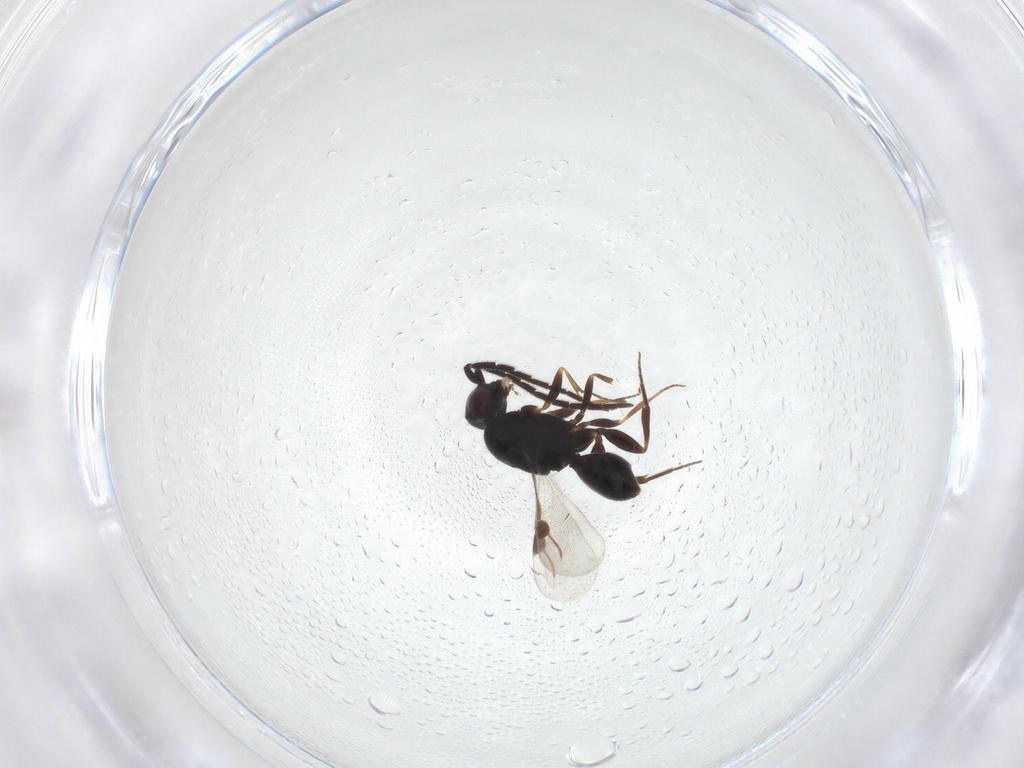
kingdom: Animalia
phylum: Arthropoda
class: Insecta
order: Hymenoptera
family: Megaspilidae
